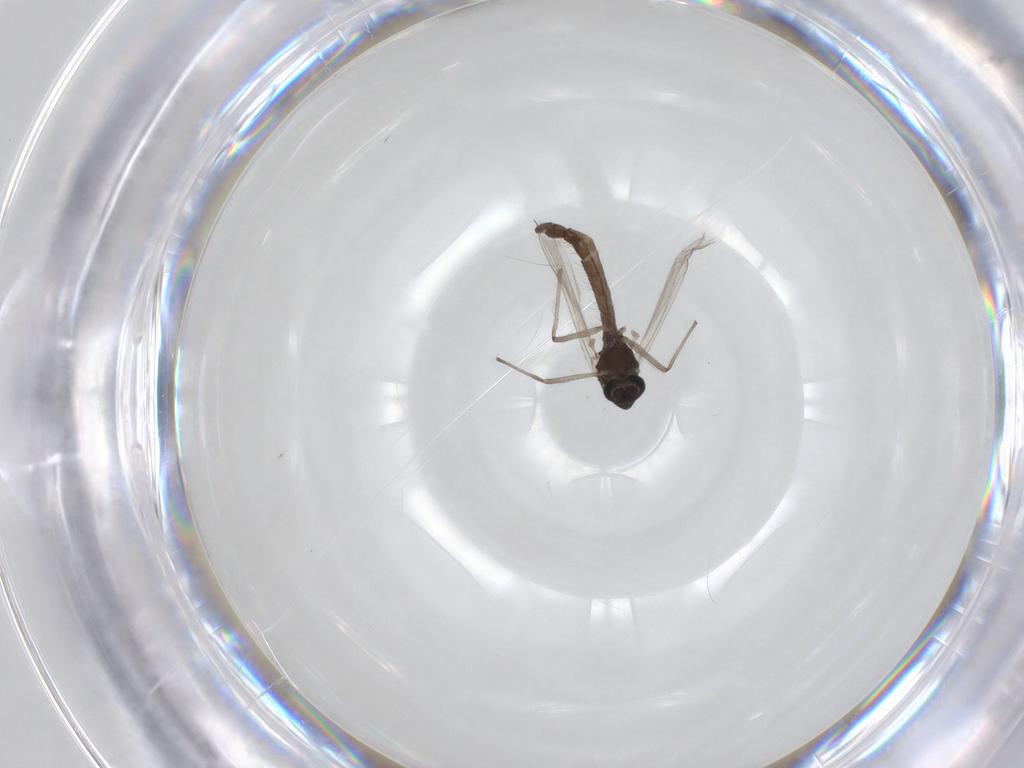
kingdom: Animalia
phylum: Arthropoda
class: Insecta
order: Diptera
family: Chironomidae
